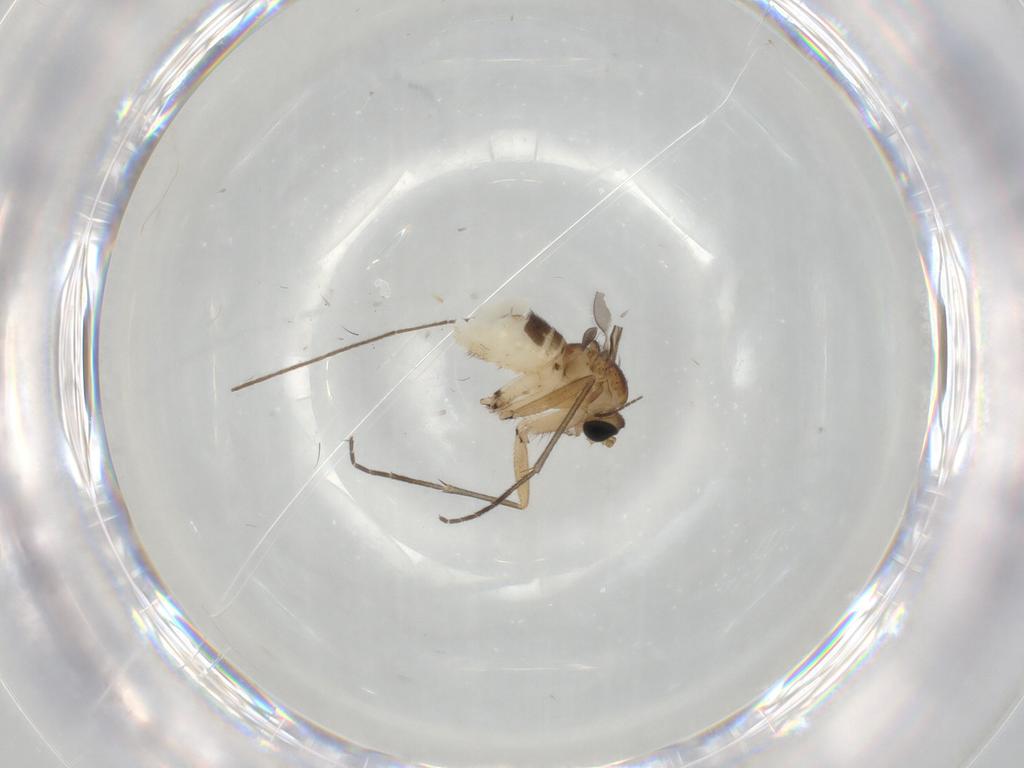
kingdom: Animalia
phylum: Arthropoda
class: Insecta
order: Diptera
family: Sciaridae
